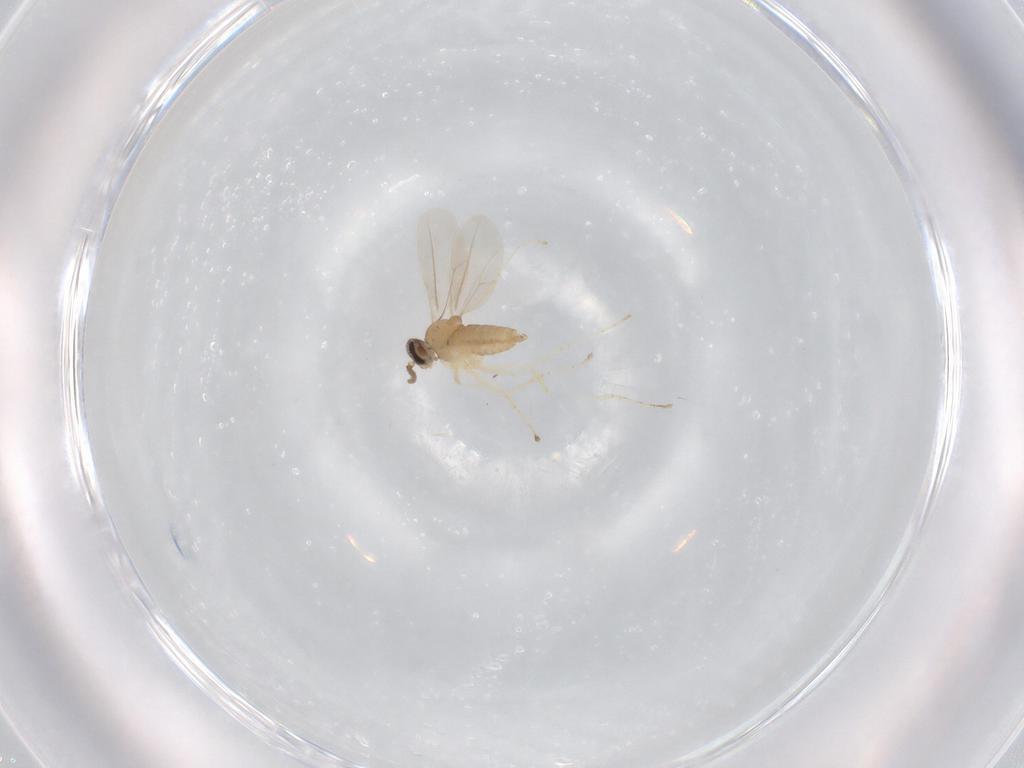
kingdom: Animalia
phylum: Arthropoda
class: Insecta
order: Diptera
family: Cecidomyiidae
